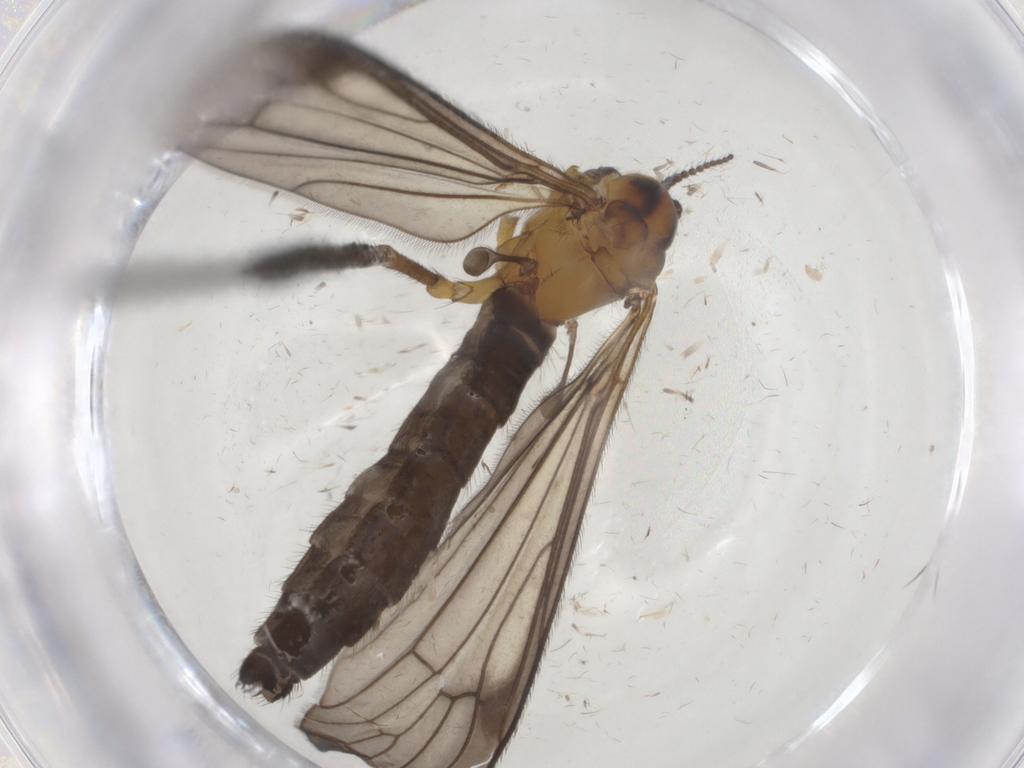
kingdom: Animalia
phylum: Arthropoda
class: Insecta
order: Diptera
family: Limoniidae
